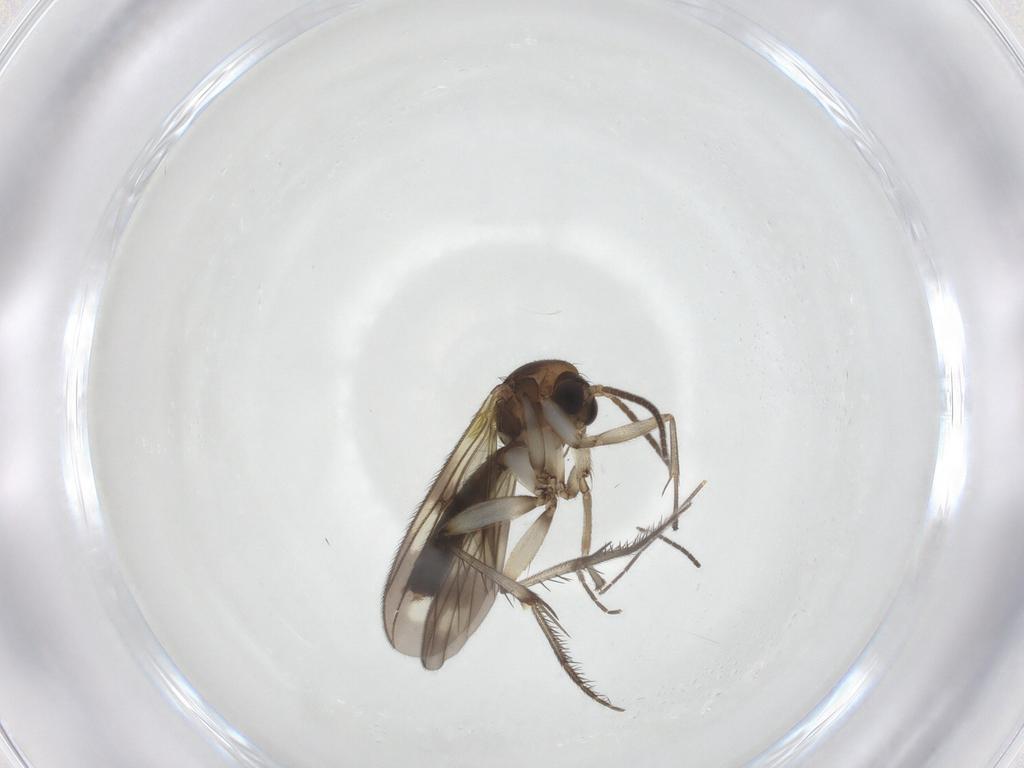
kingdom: Animalia
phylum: Arthropoda
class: Insecta
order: Diptera
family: Mycetophilidae
